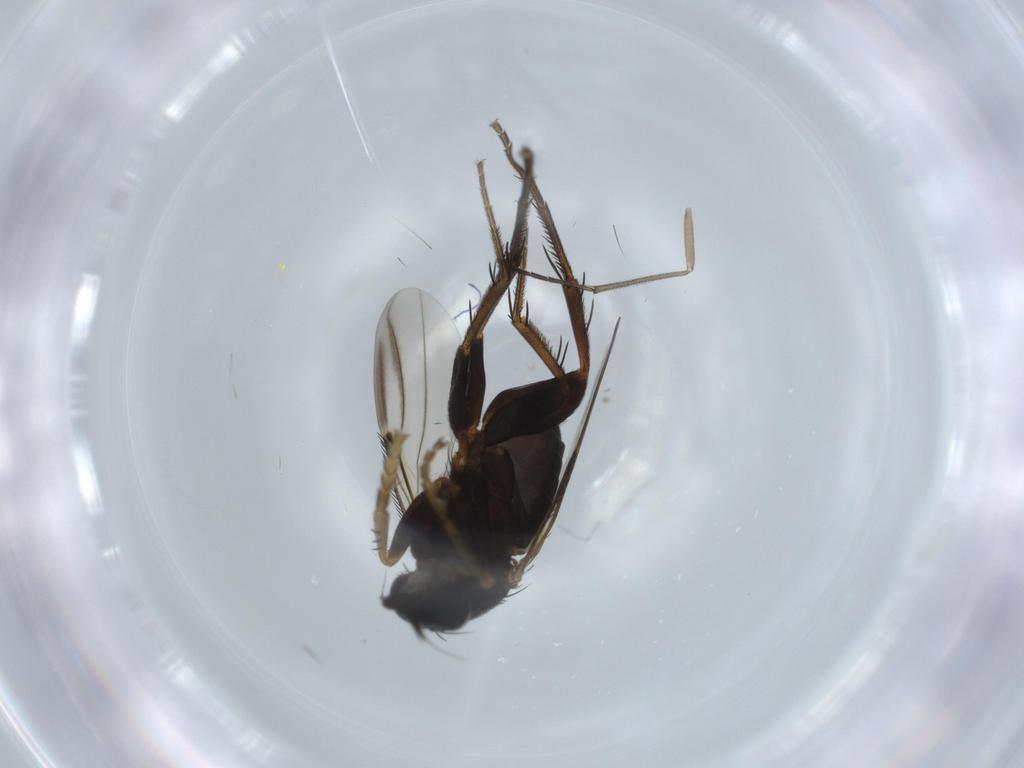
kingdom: Animalia
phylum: Arthropoda
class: Insecta
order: Diptera
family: Phoridae
